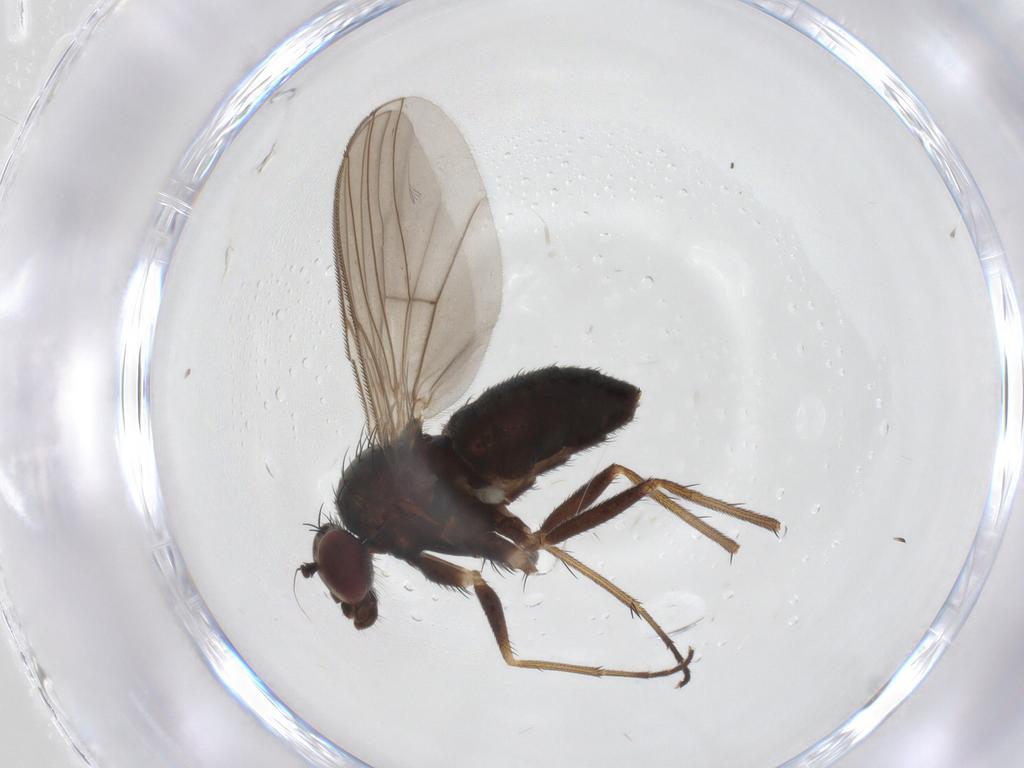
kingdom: Animalia
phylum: Arthropoda
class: Insecta
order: Diptera
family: Dolichopodidae
